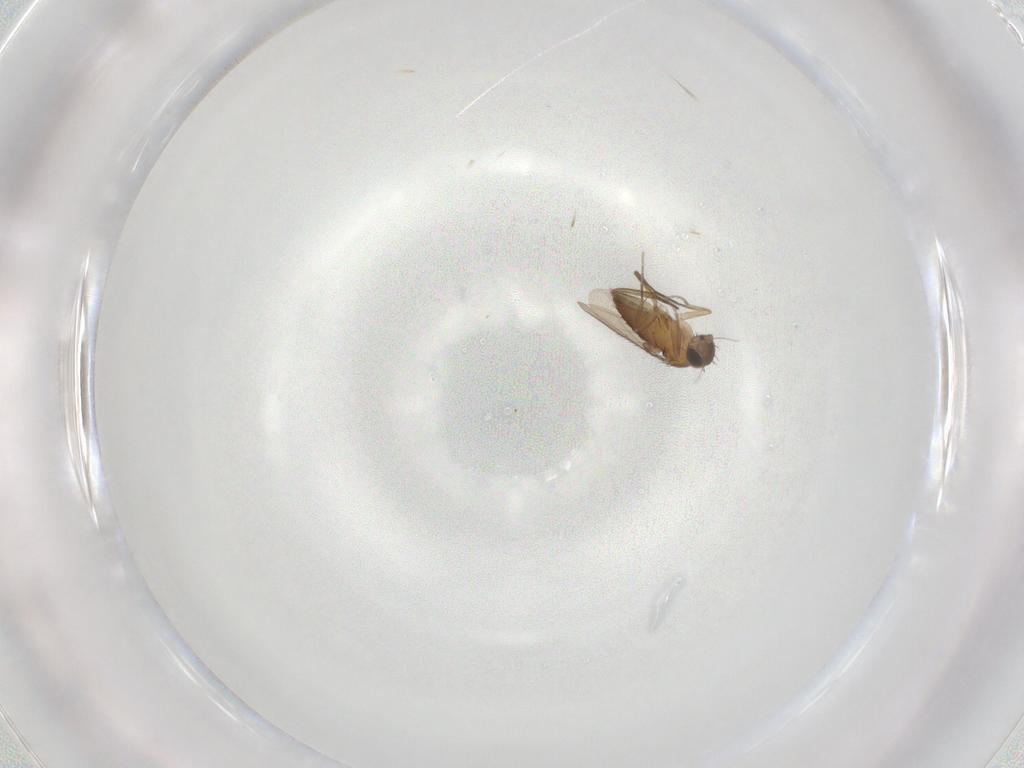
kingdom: Animalia
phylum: Arthropoda
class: Insecta
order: Diptera
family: Phoridae
